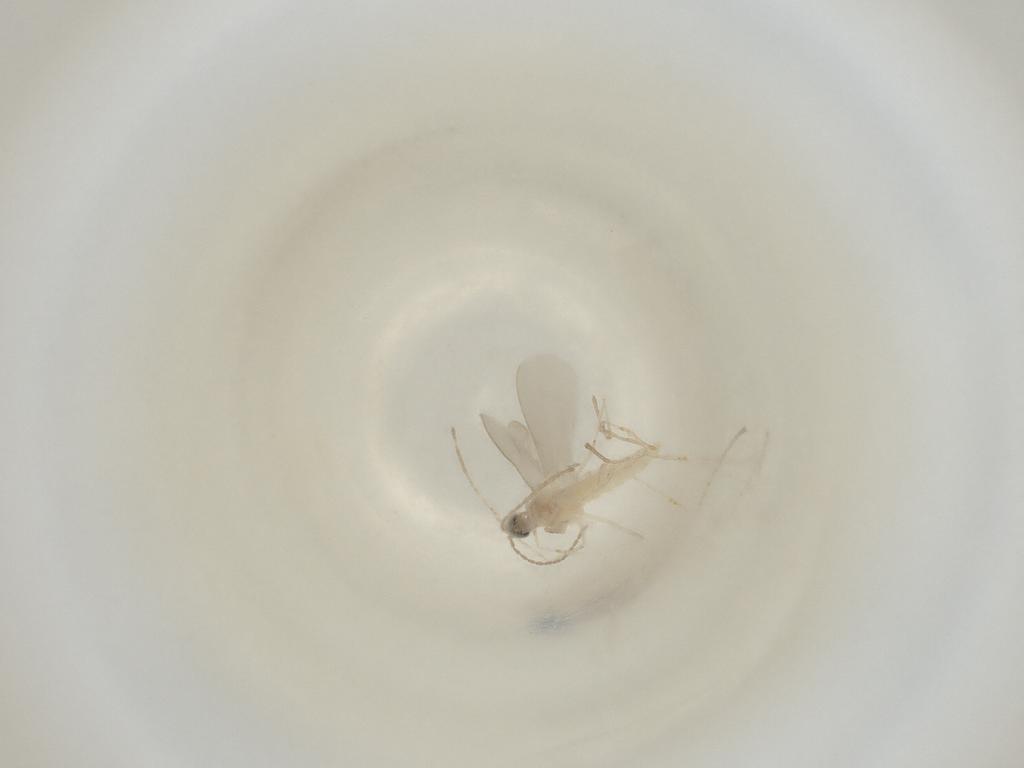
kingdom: Animalia
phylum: Arthropoda
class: Insecta
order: Diptera
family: Cecidomyiidae
